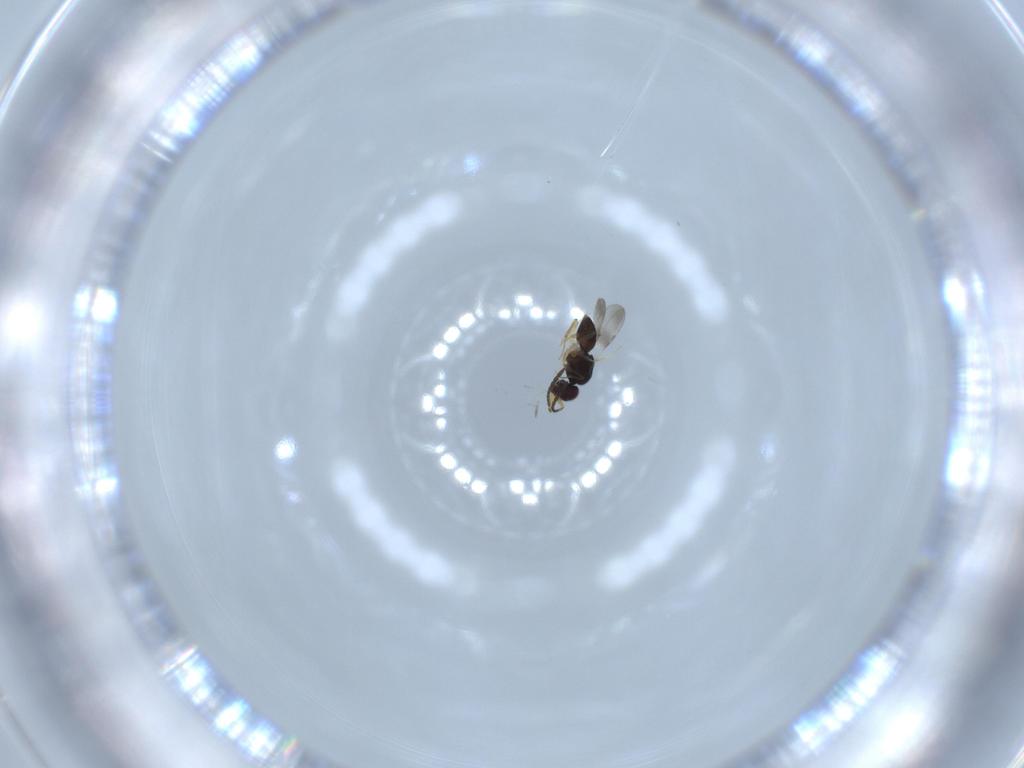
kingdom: Animalia
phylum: Arthropoda
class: Insecta
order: Hymenoptera
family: Ceraphronidae
